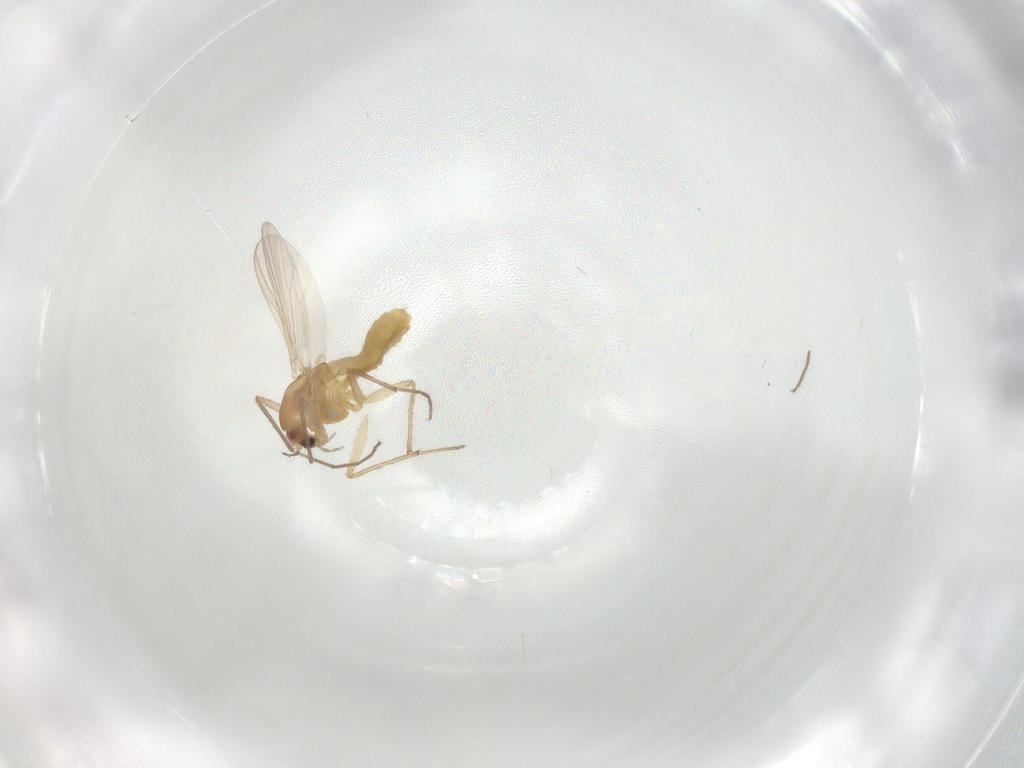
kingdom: Animalia
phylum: Arthropoda
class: Insecta
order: Diptera
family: Chironomidae
